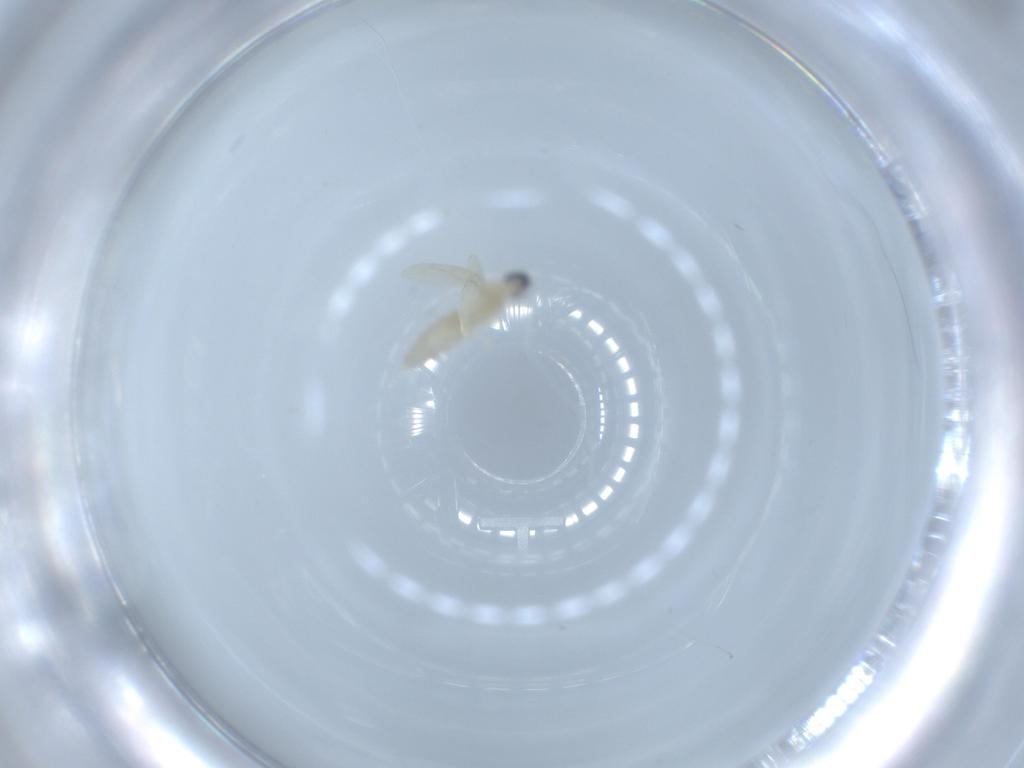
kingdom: Animalia
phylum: Arthropoda
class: Insecta
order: Diptera
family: Cecidomyiidae
